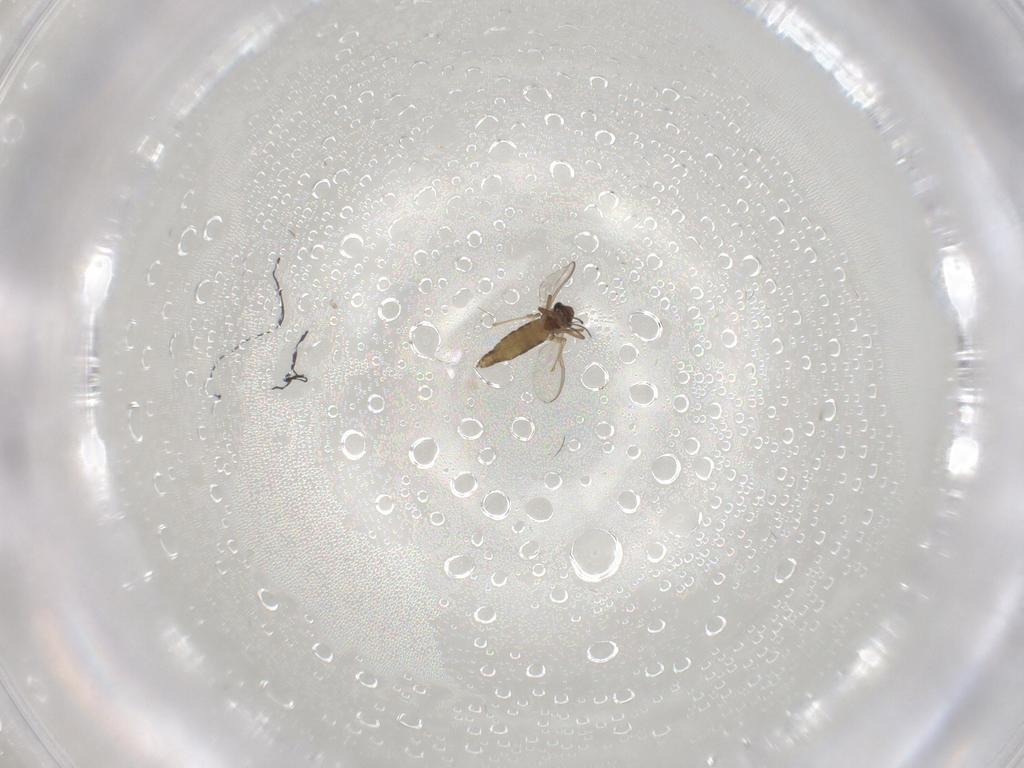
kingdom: Animalia
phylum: Arthropoda
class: Insecta
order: Diptera
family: Chironomidae
